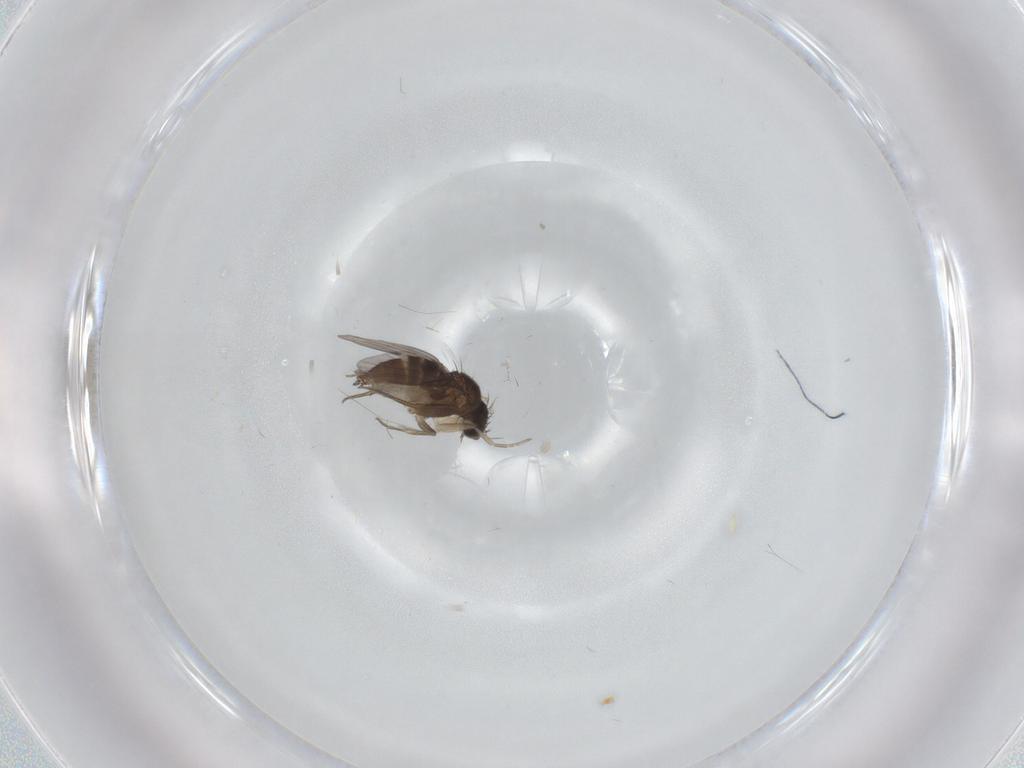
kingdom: Animalia
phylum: Arthropoda
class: Insecta
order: Diptera
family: Phoridae
